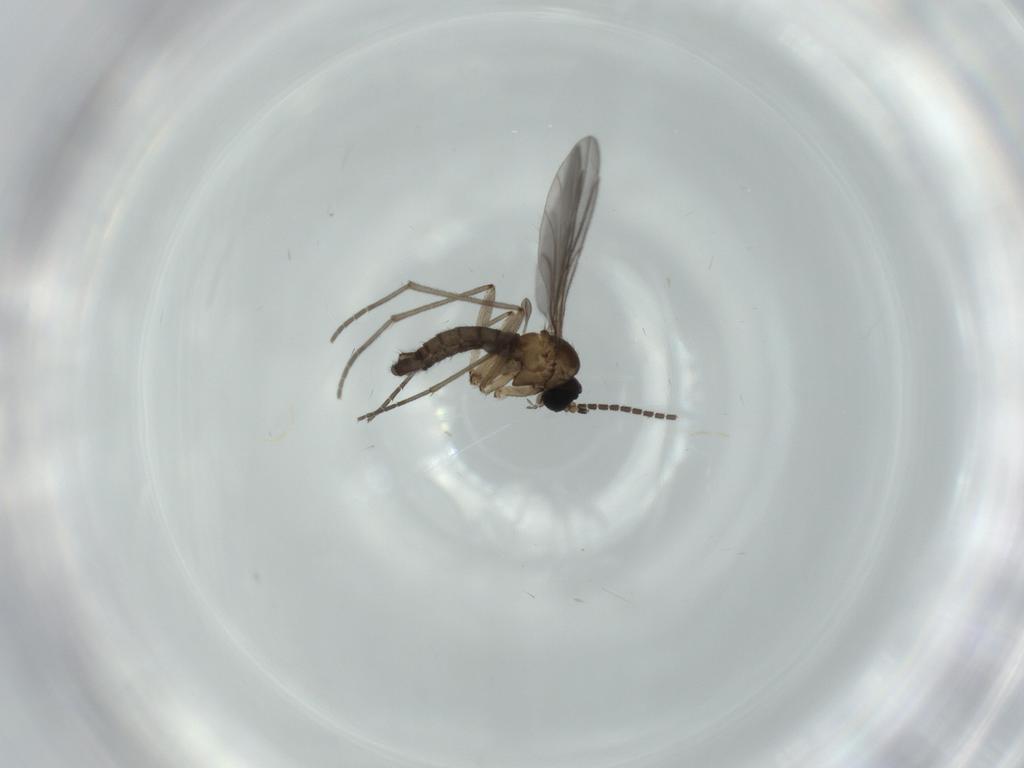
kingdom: Animalia
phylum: Arthropoda
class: Insecta
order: Diptera
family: Sciaridae
